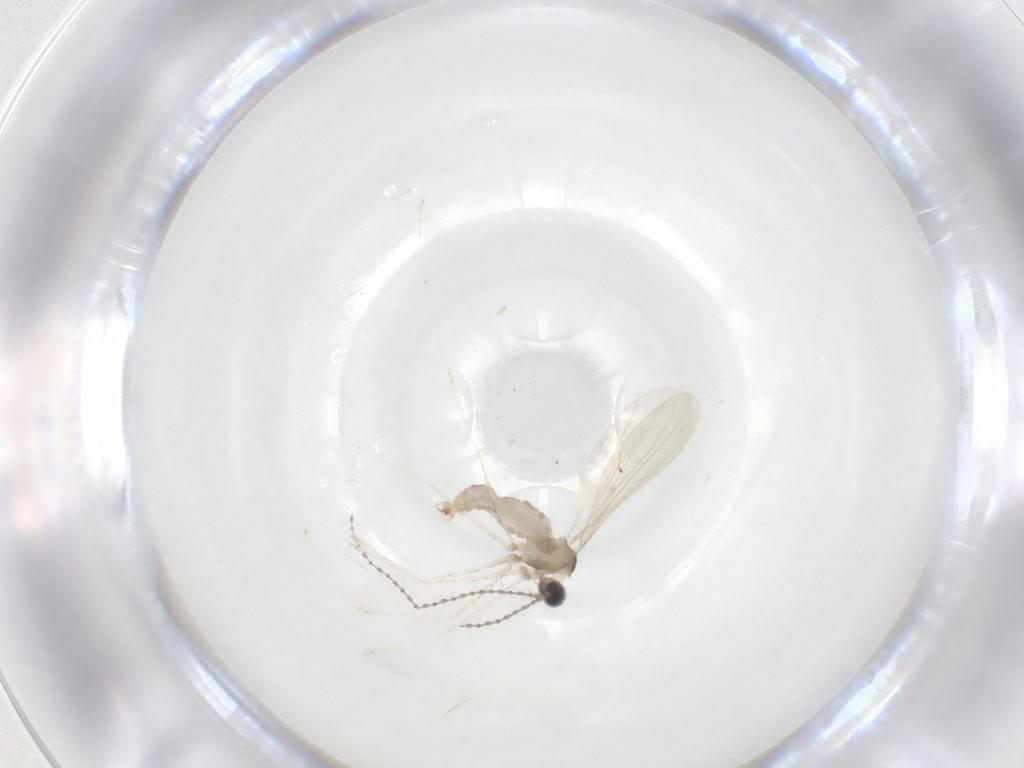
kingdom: Animalia
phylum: Arthropoda
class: Insecta
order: Diptera
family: Cecidomyiidae
